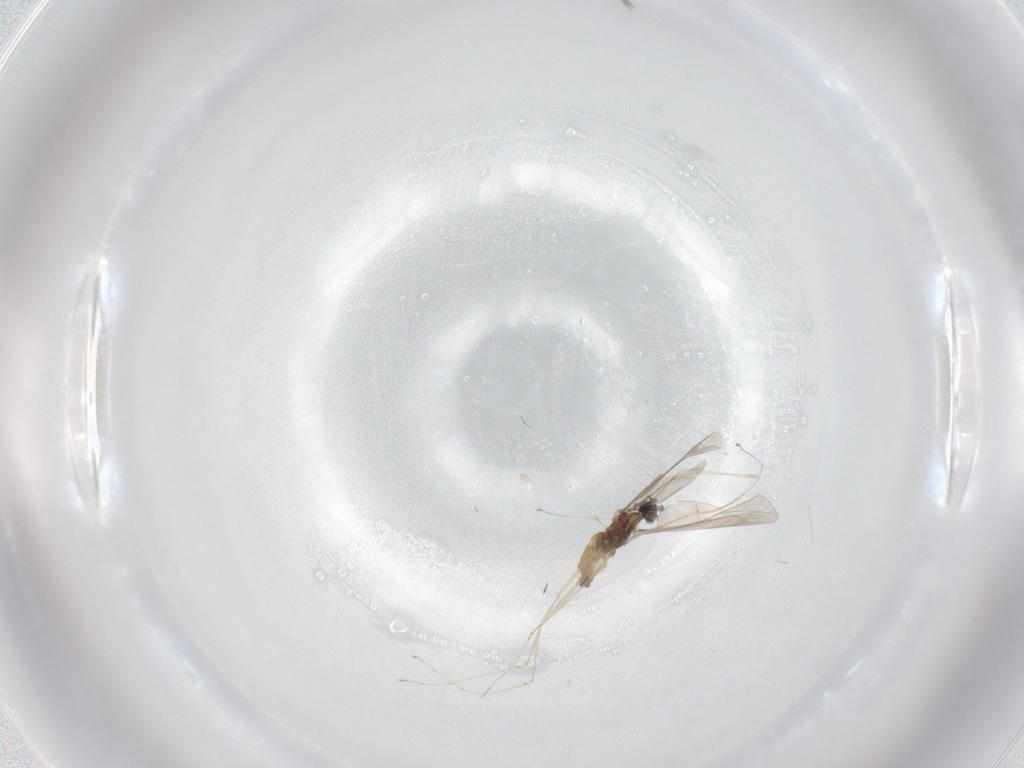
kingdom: Animalia
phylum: Arthropoda
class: Insecta
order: Diptera
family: Cecidomyiidae
